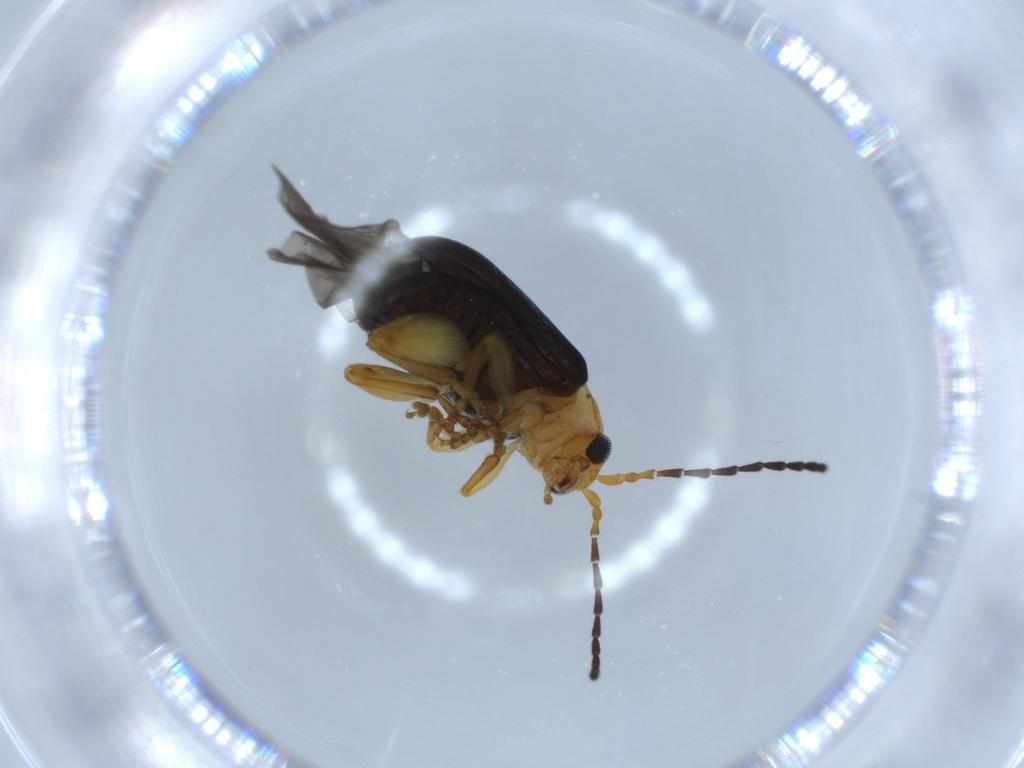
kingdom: Animalia
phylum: Arthropoda
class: Insecta
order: Coleoptera
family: Chrysomelidae
